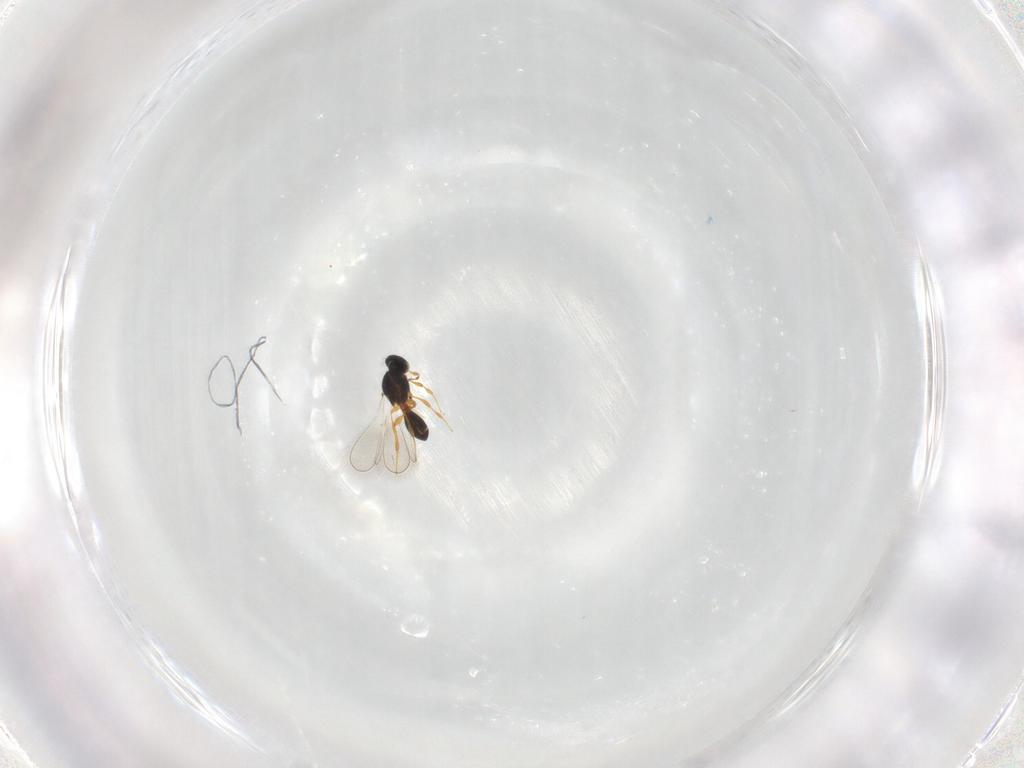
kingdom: Animalia
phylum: Arthropoda
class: Insecta
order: Hymenoptera
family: Platygastridae
